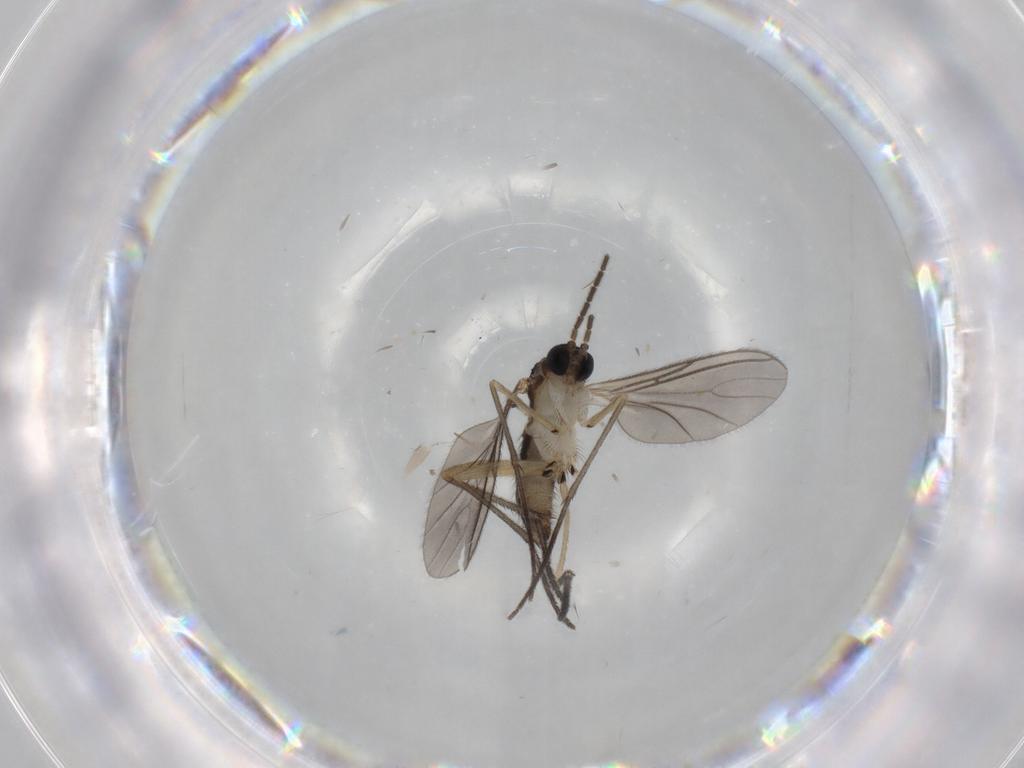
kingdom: Animalia
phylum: Arthropoda
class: Insecta
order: Diptera
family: Sciaridae
